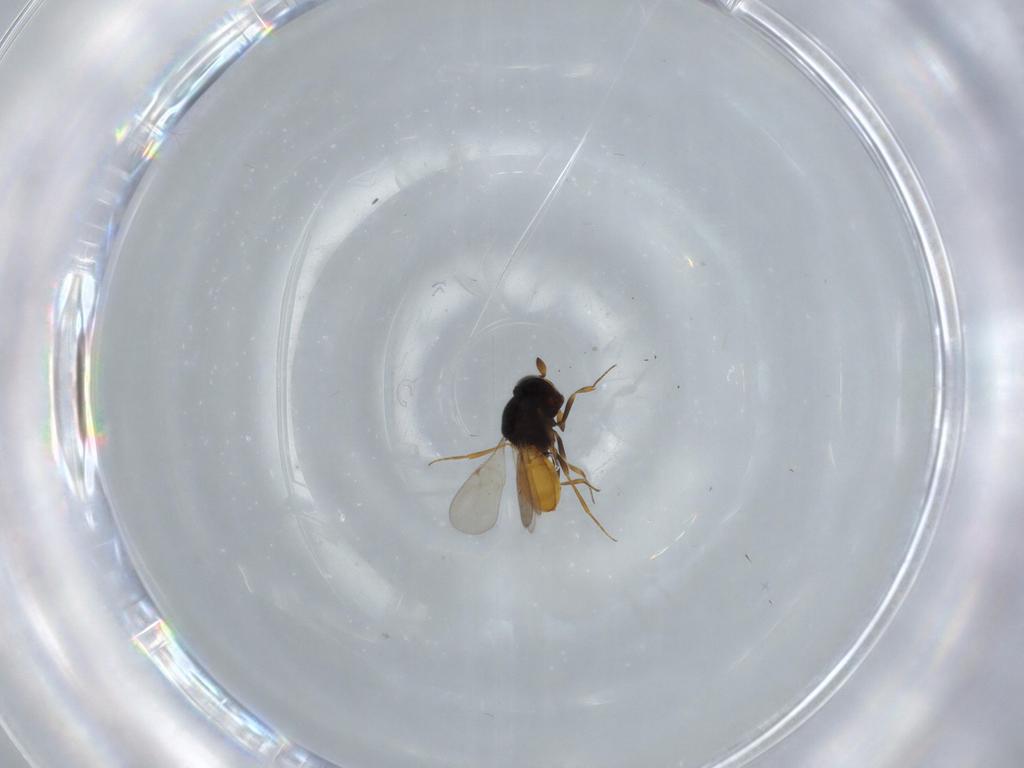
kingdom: Animalia
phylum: Arthropoda
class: Insecta
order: Hymenoptera
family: Scelionidae
